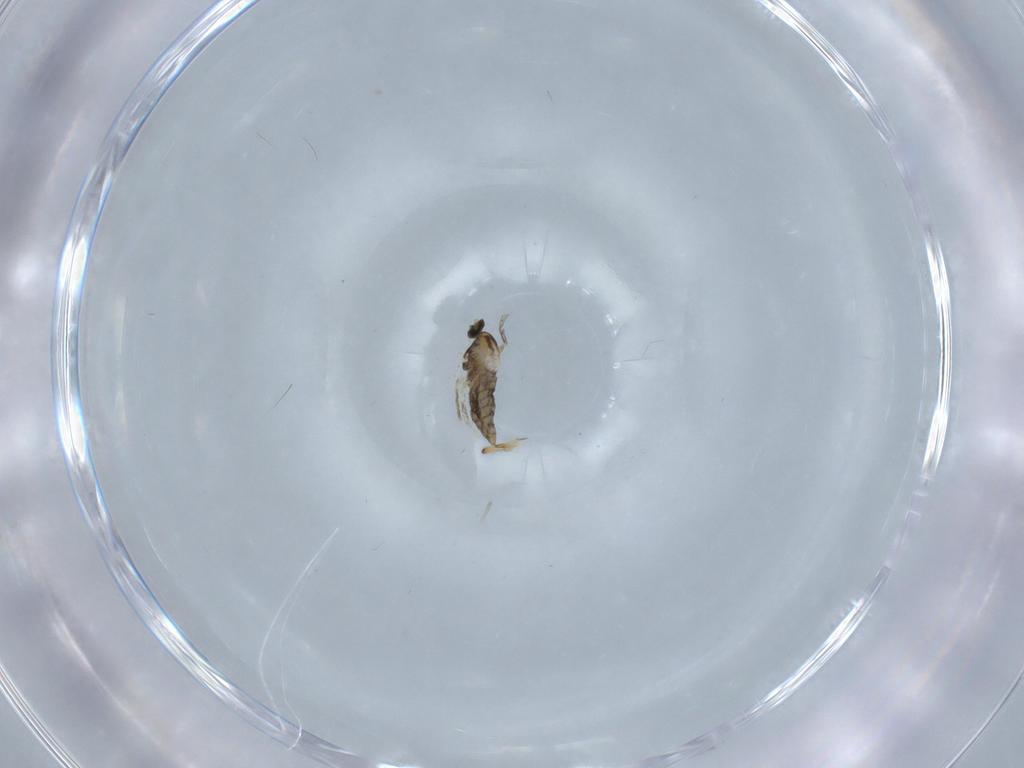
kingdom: Animalia
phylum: Arthropoda
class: Insecta
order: Diptera
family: Cecidomyiidae
